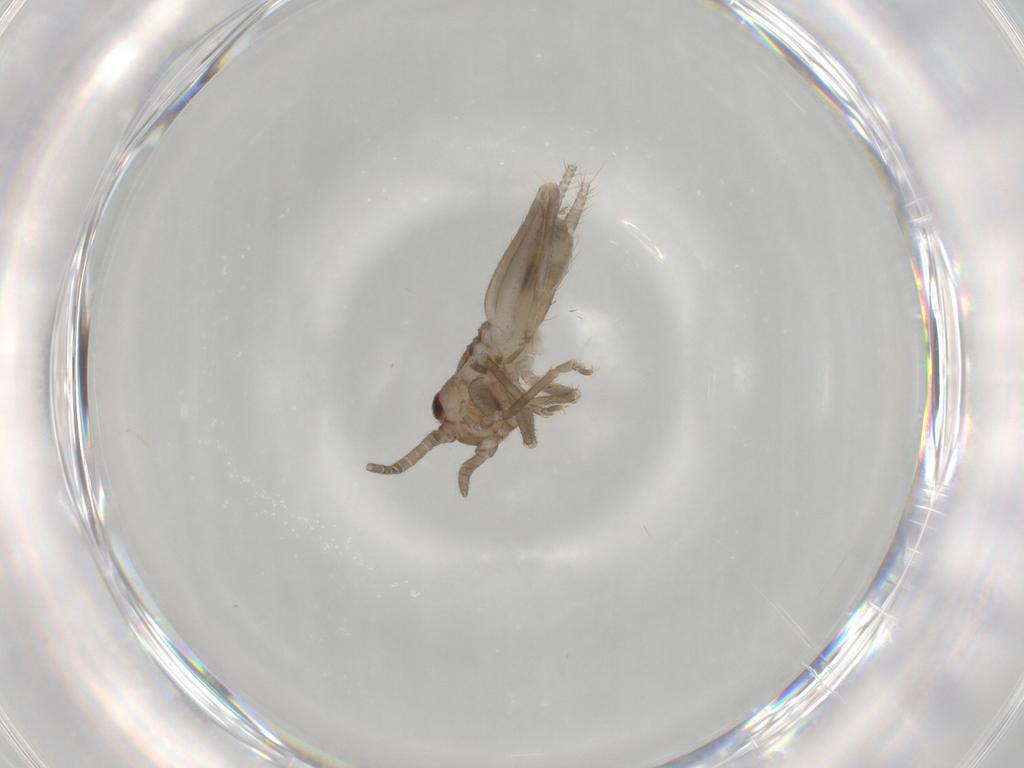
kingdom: Animalia
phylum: Arthropoda
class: Insecta
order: Orthoptera
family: Gryllidae
